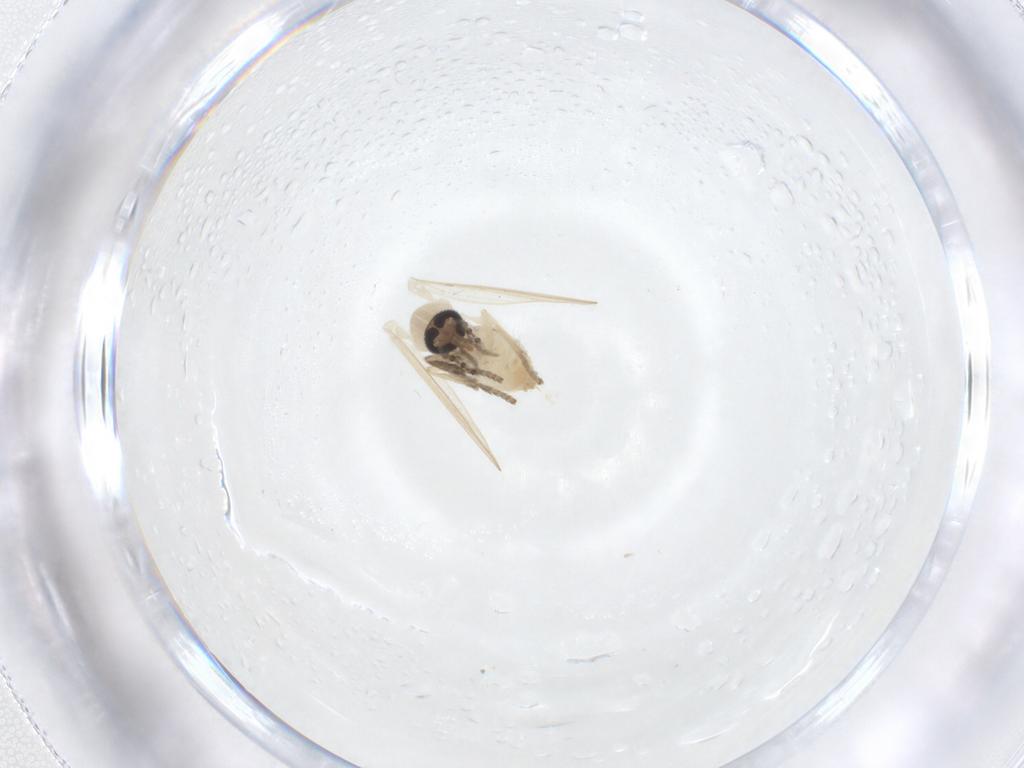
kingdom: Animalia
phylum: Arthropoda
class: Insecta
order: Diptera
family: Psychodidae
